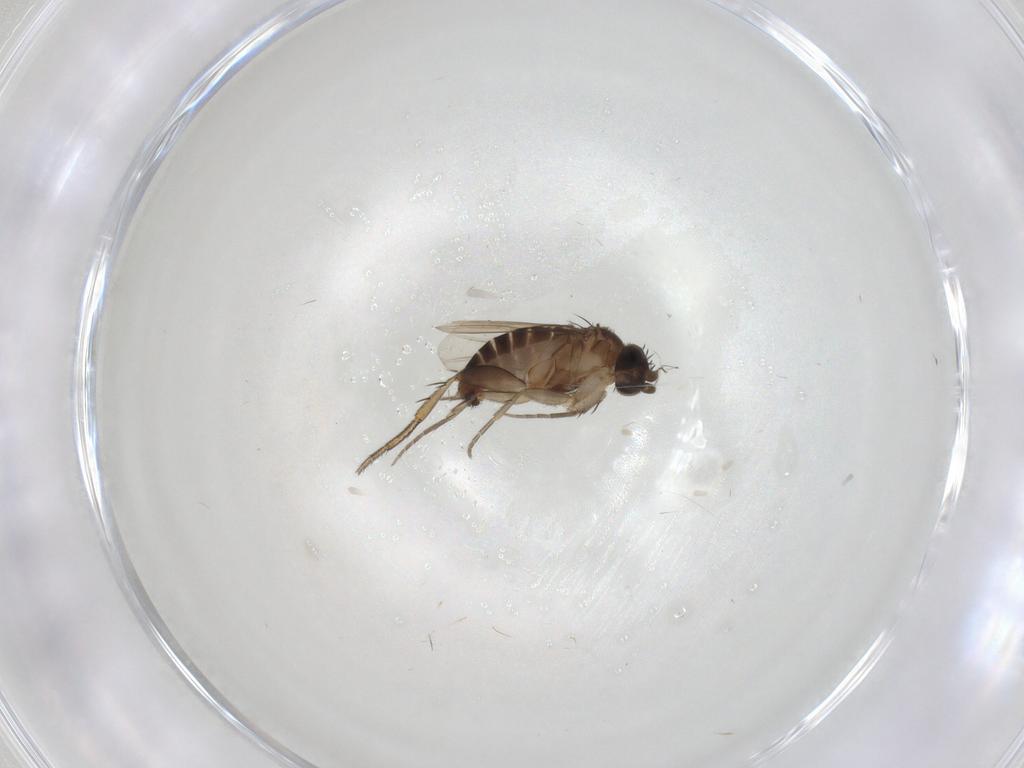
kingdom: Animalia
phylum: Arthropoda
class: Insecta
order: Diptera
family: Phoridae
